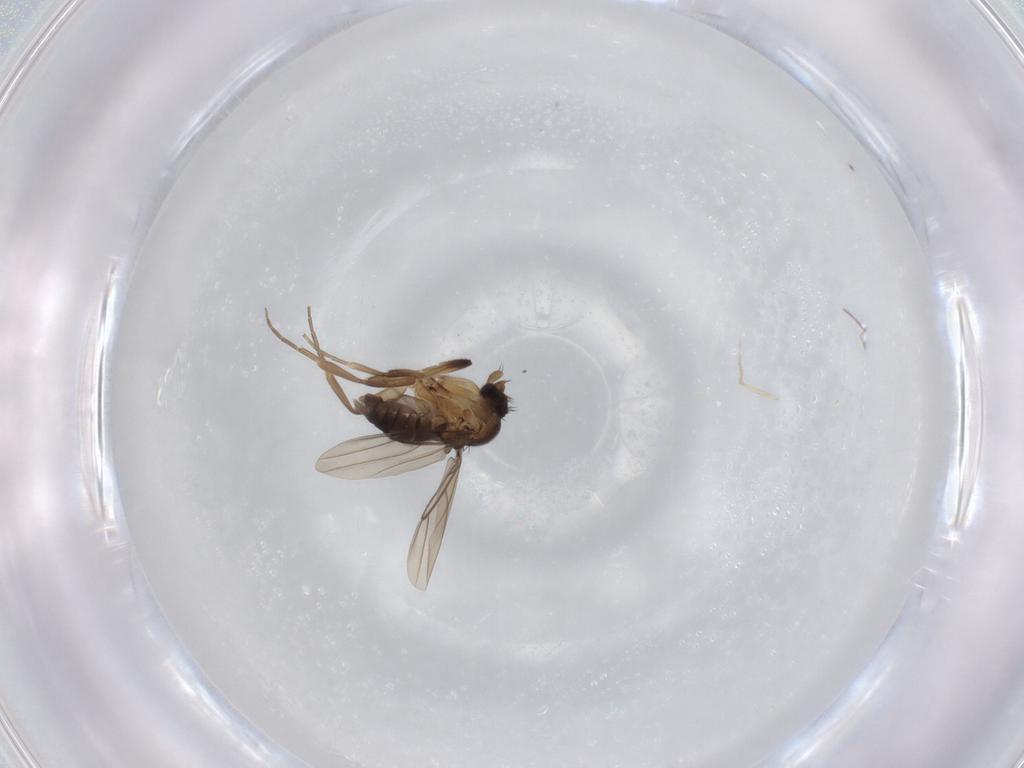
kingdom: Animalia
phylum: Arthropoda
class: Insecta
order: Diptera
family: Phoridae
